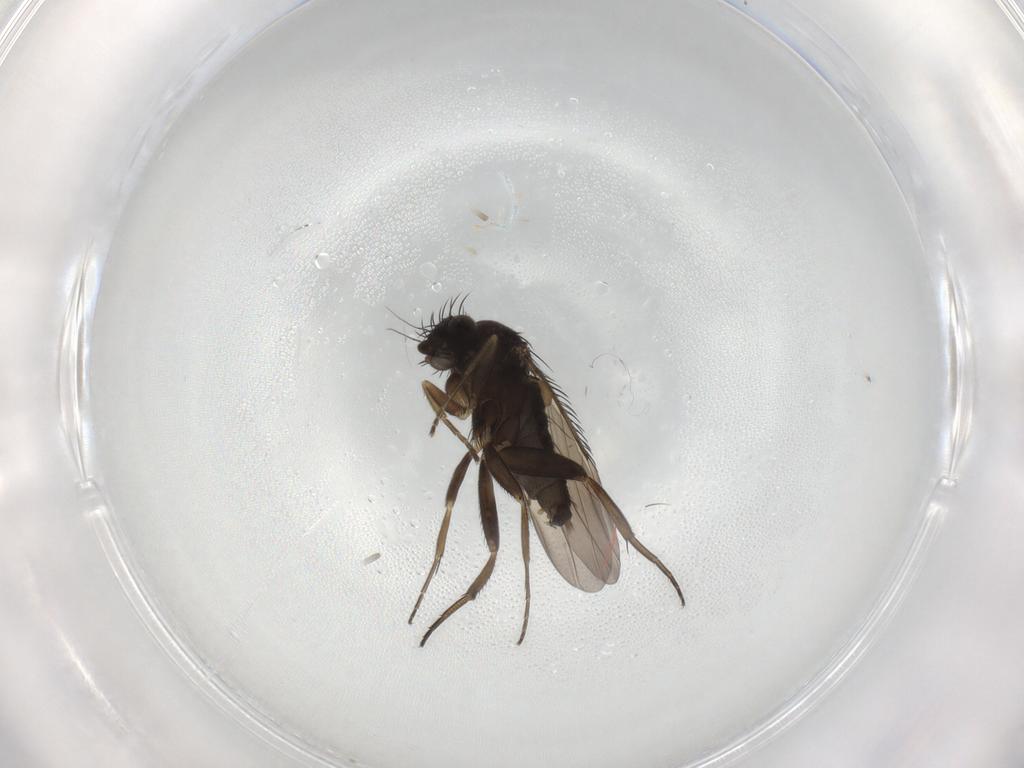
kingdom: Animalia
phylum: Arthropoda
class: Insecta
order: Diptera
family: Phoridae
